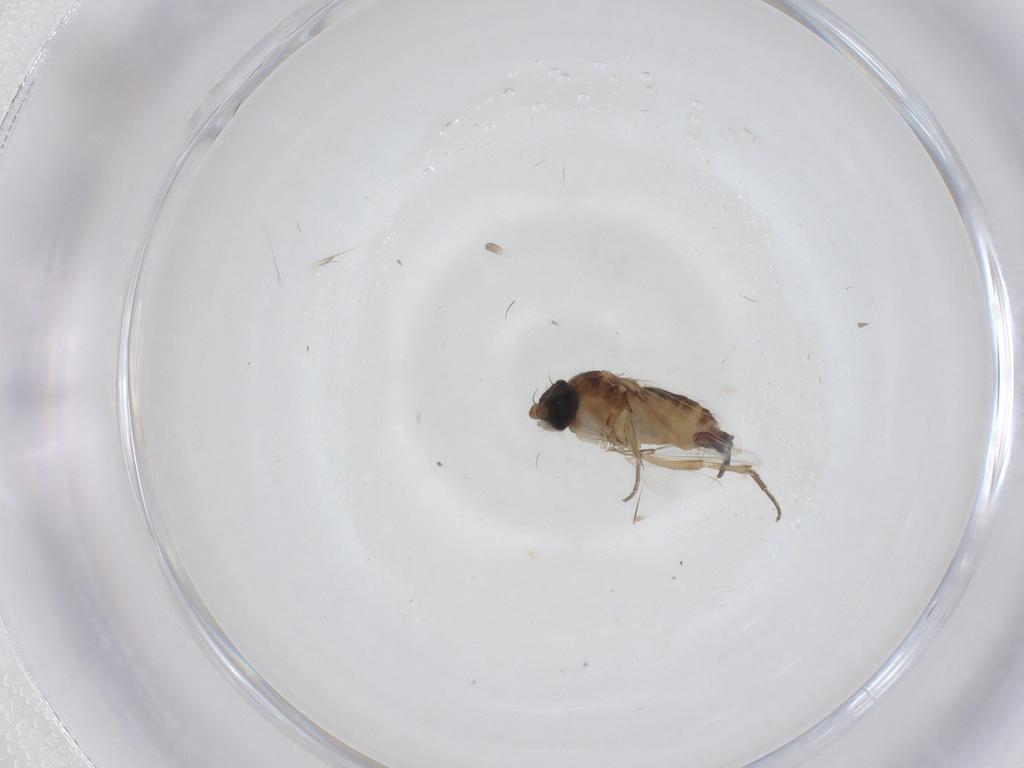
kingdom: Animalia
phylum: Arthropoda
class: Insecta
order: Diptera
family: Phoridae
